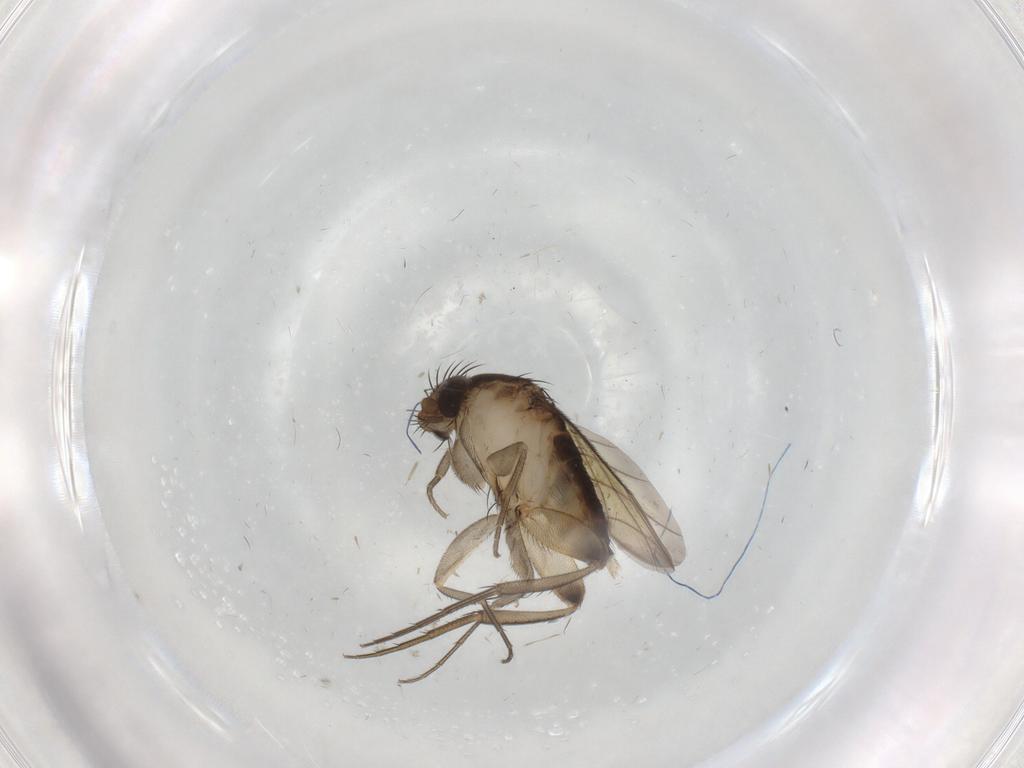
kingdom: Animalia
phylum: Arthropoda
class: Insecta
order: Diptera
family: Phoridae
